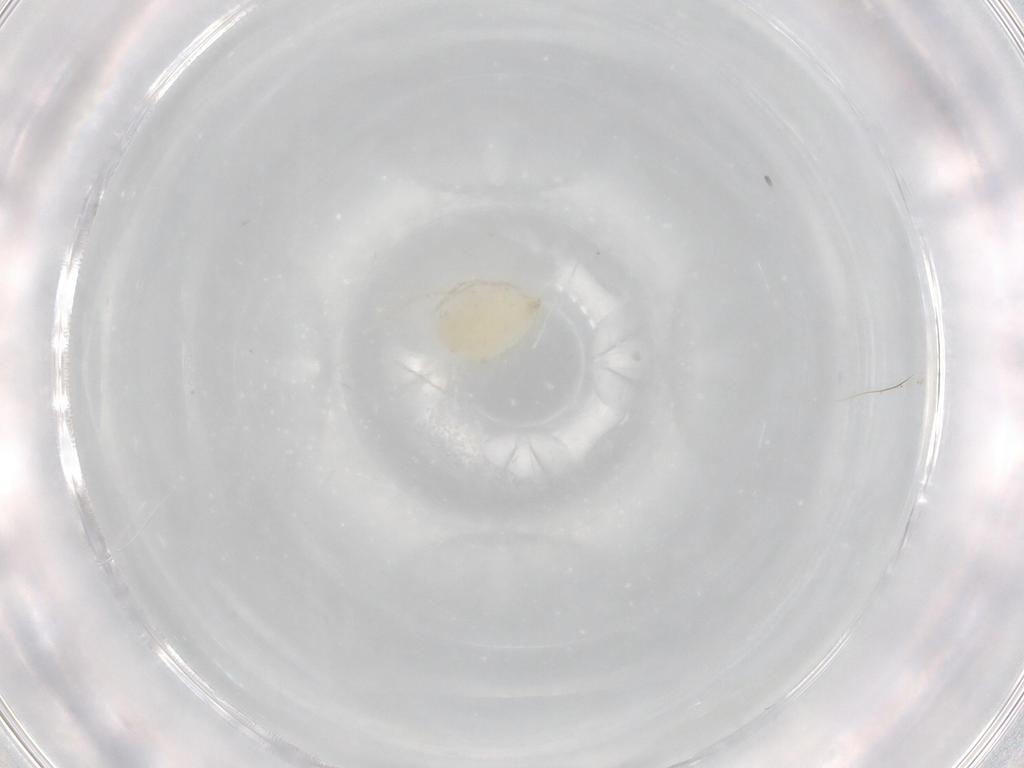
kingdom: Animalia
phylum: Arthropoda
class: Arachnida
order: Trombidiformes
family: Erythraeidae
